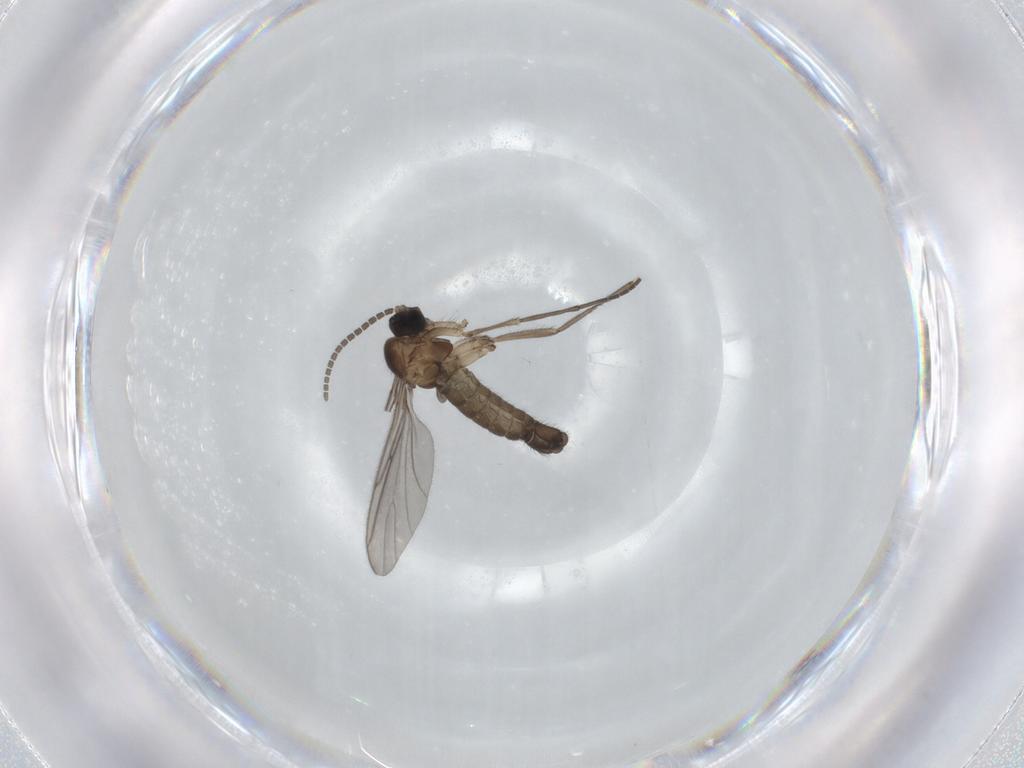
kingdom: Animalia
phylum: Arthropoda
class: Insecta
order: Diptera
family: Sciaridae
